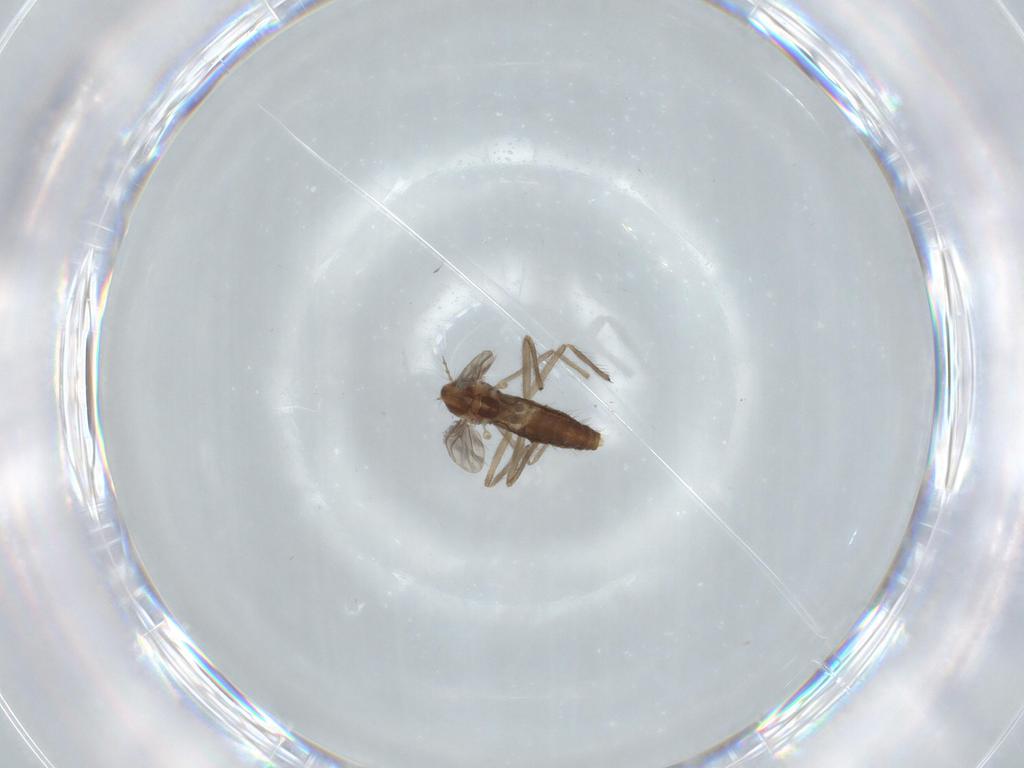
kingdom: Animalia
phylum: Arthropoda
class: Insecta
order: Diptera
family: Chironomidae
